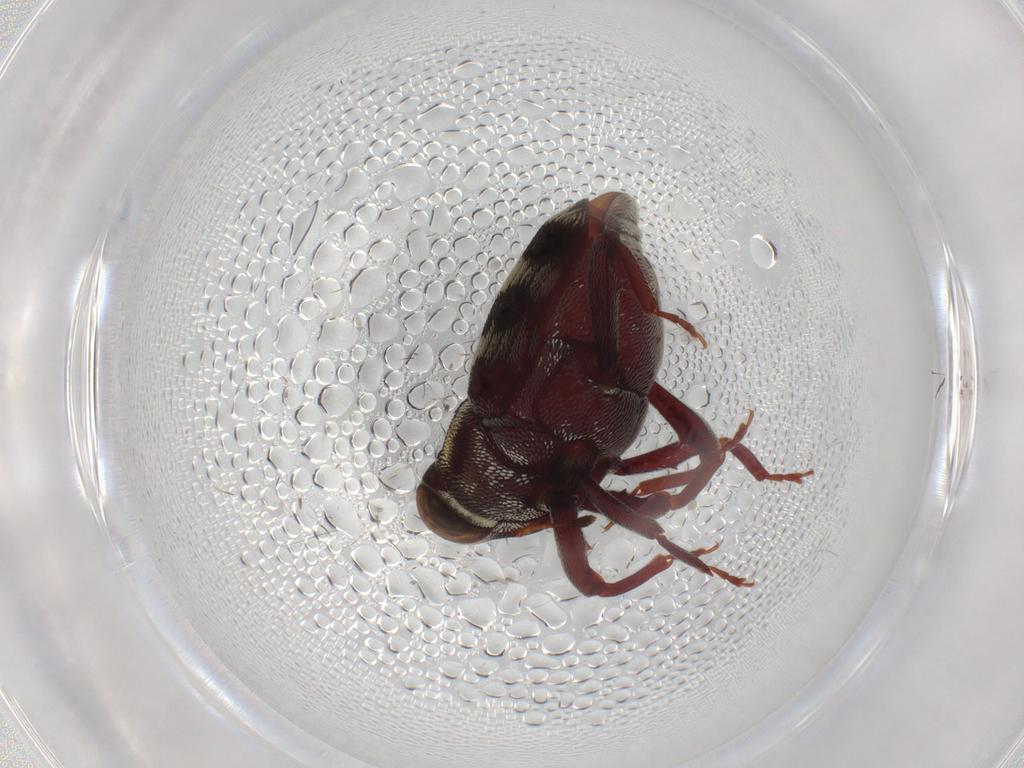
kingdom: Animalia
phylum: Arthropoda
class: Insecta
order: Coleoptera
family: Curculionidae
